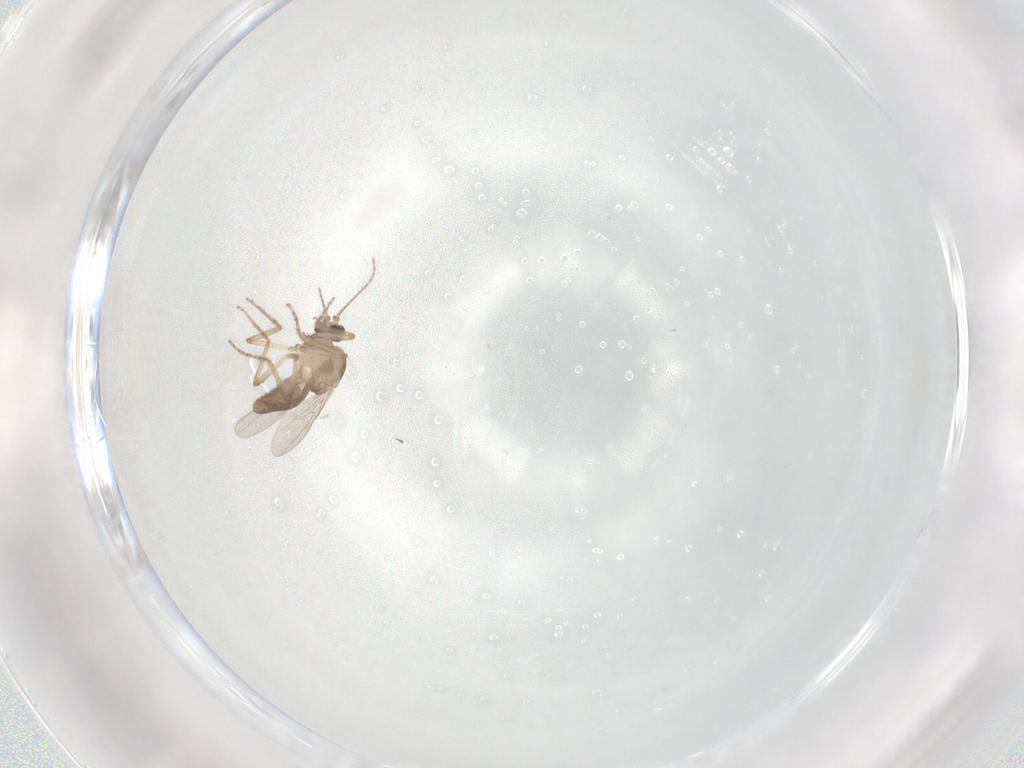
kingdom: Animalia
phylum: Arthropoda
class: Insecta
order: Diptera
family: Ceratopogonidae
